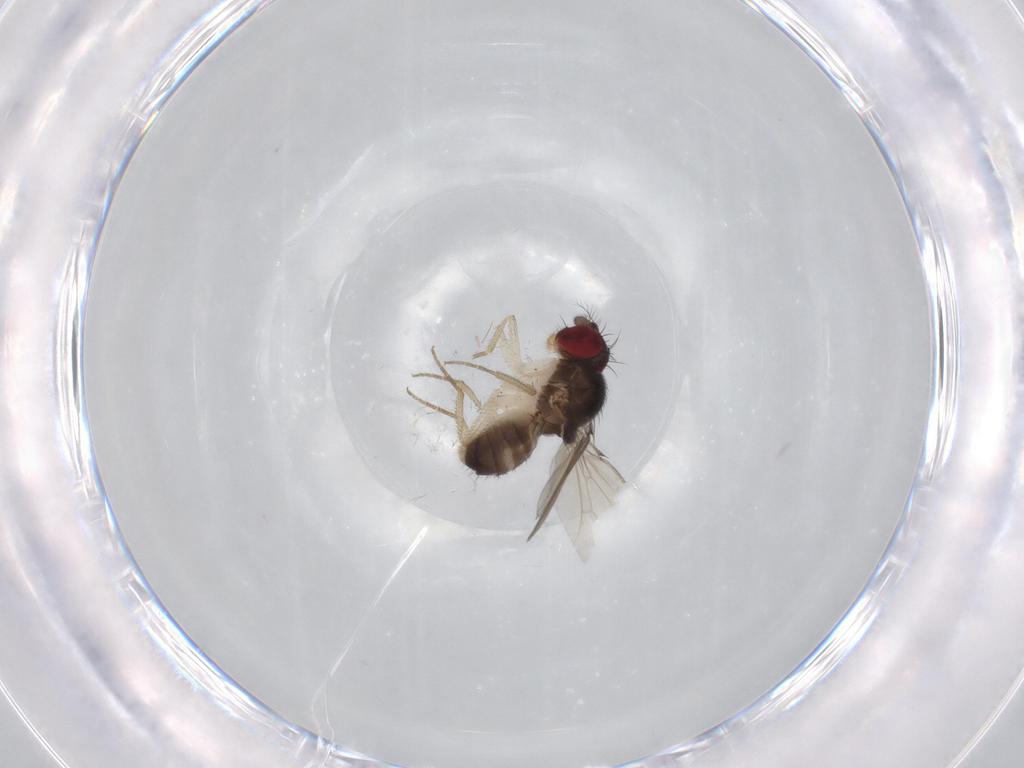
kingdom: Animalia
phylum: Arthropoda
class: Insecta
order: Diptera
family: Drosophilidae
